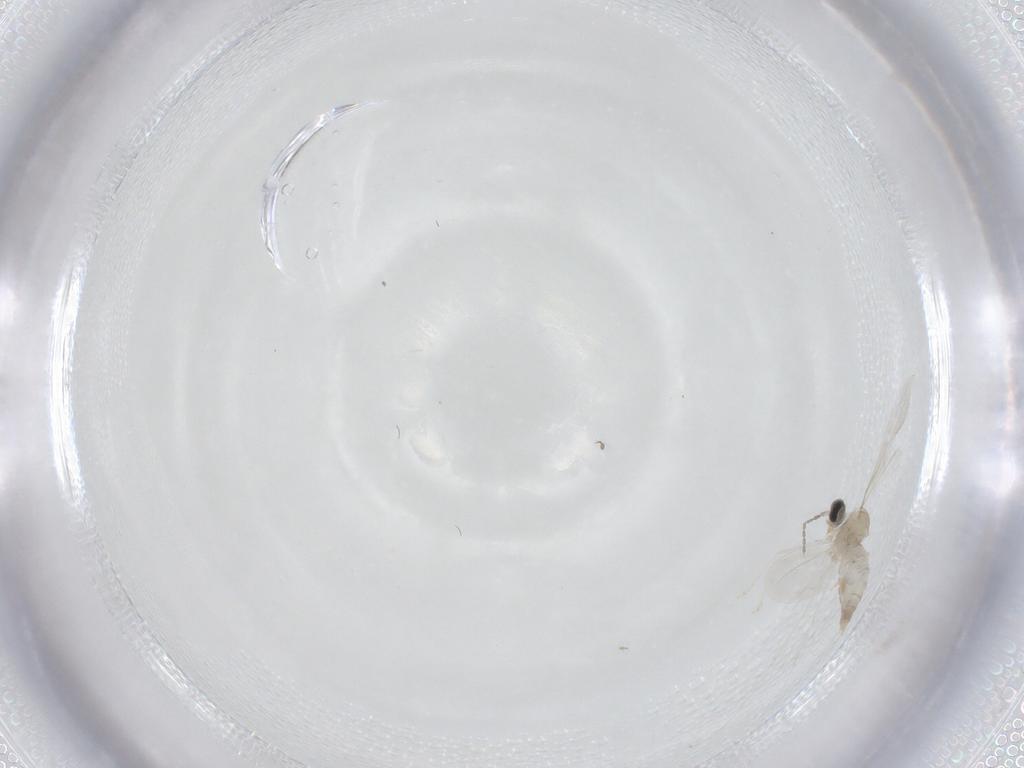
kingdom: Animalia
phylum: Arthropoda
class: Insecta
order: Diptera
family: Cecidomyiidae
